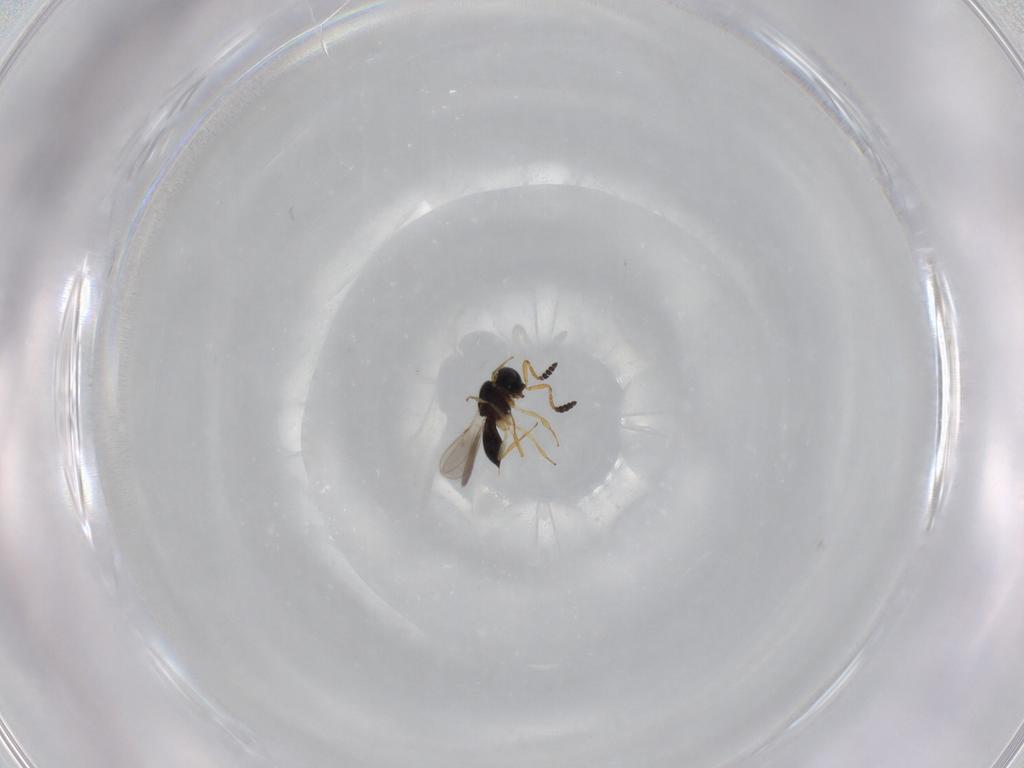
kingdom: Animalia
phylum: Arthropoda
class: Insecta
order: Hymenoptera
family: Scelionidae
